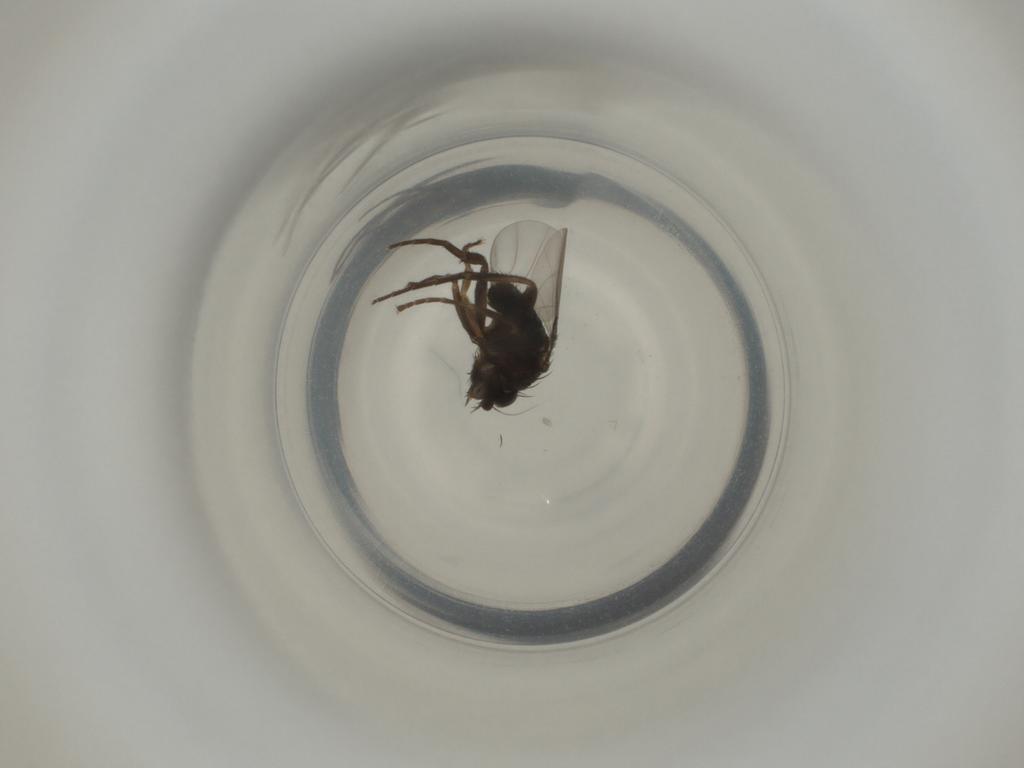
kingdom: Animalia
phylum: Arthropoda
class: Insecta
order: Diptera
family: Phoridae
